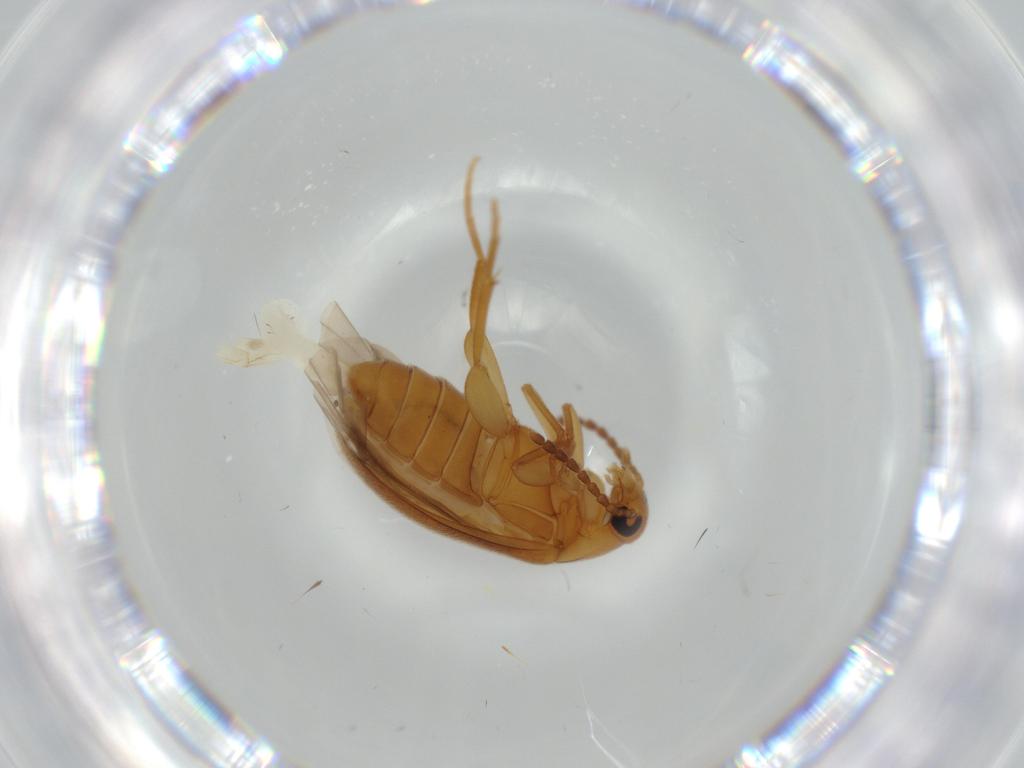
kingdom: Animalia
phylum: Arthropoda
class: Insecta
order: Coleoptera
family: Scraptiidae
